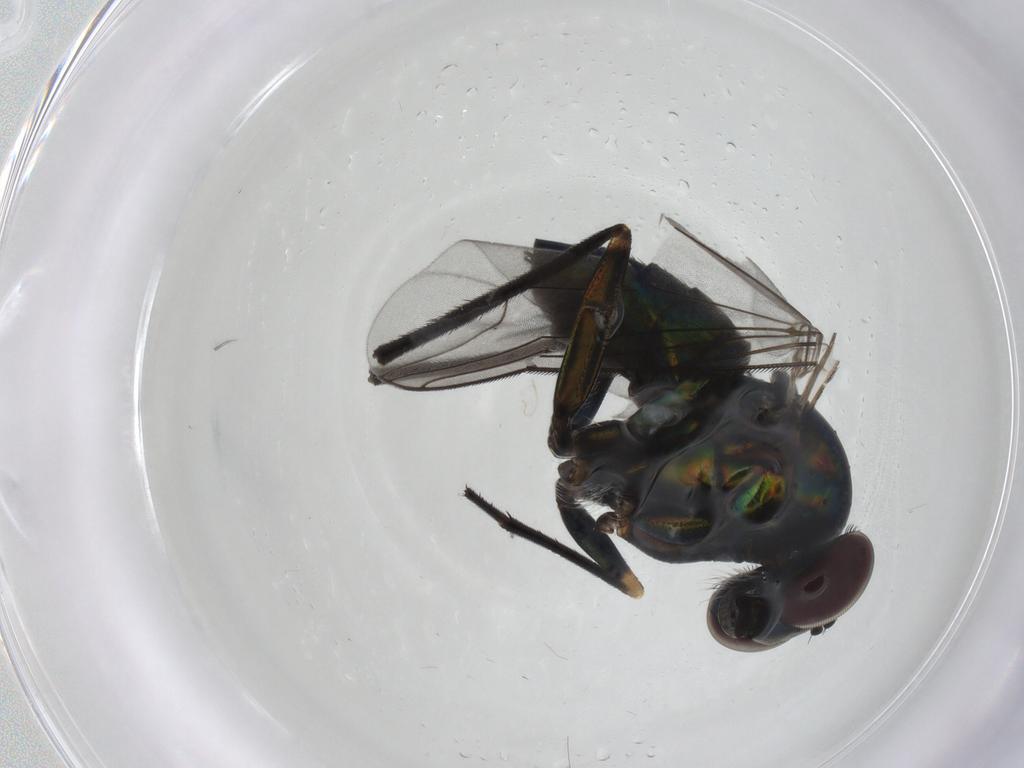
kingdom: Animalia
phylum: Arthropoda
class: Insecta
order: Diptera
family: Dolichopodidae
